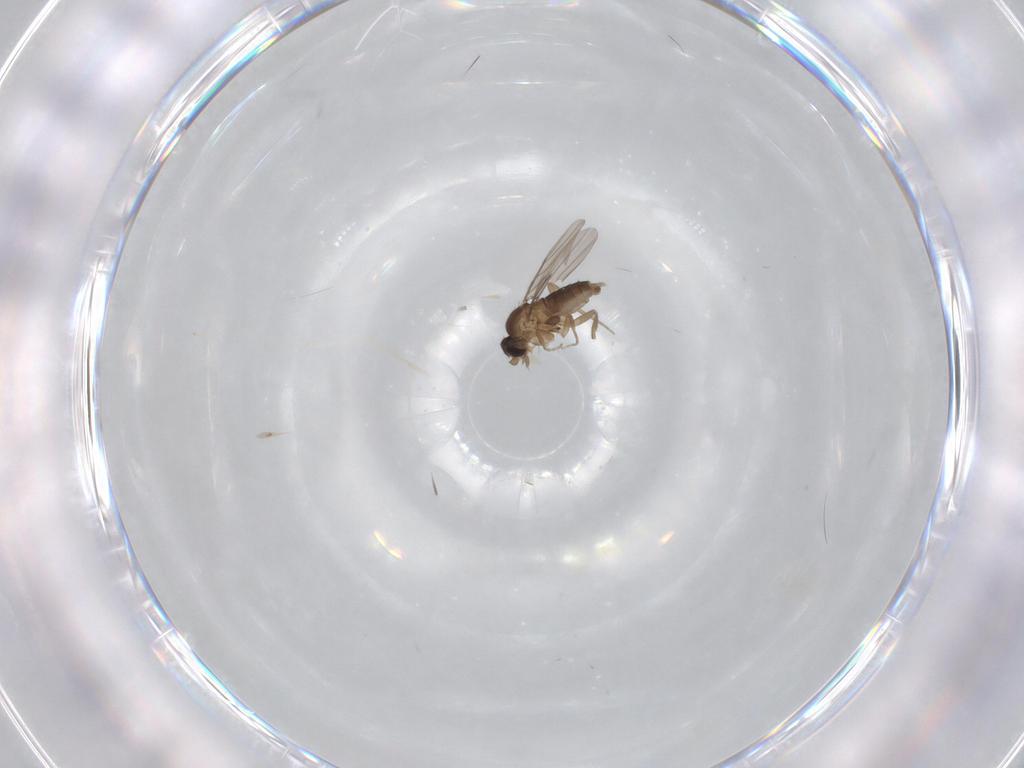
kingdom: Animalia
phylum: Arthropoda
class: Insecta
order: Diptera
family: Phoridae
